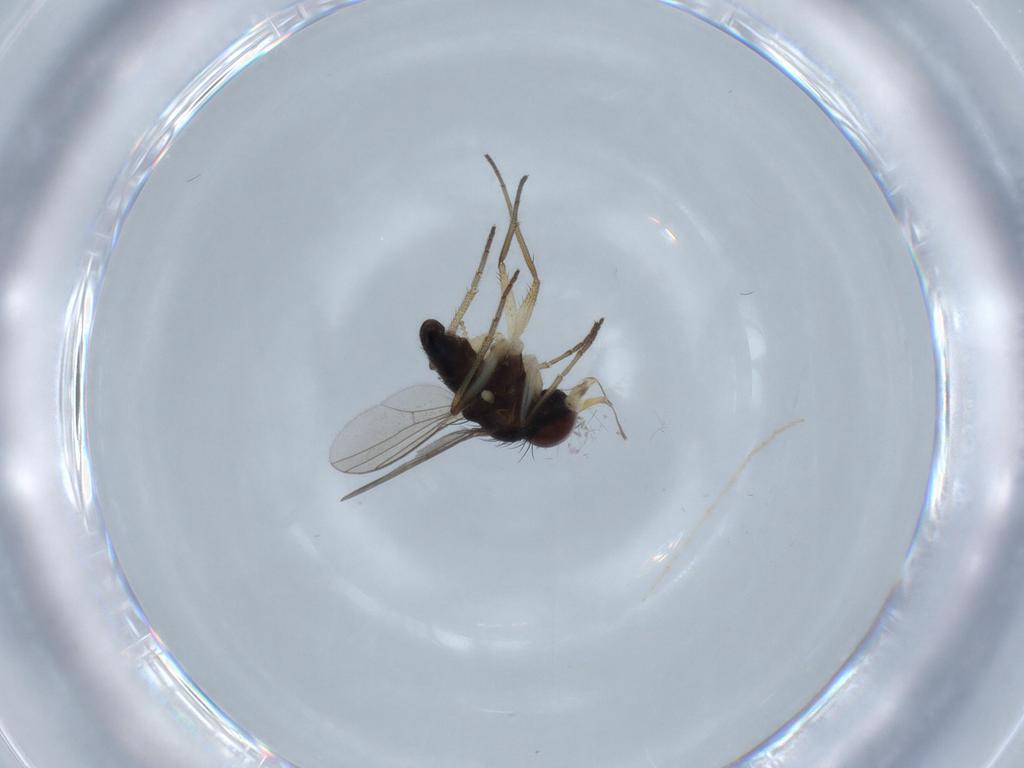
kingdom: Animalia
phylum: Arthropoda
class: Insecta
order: Diptera
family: Dolichopodidae
